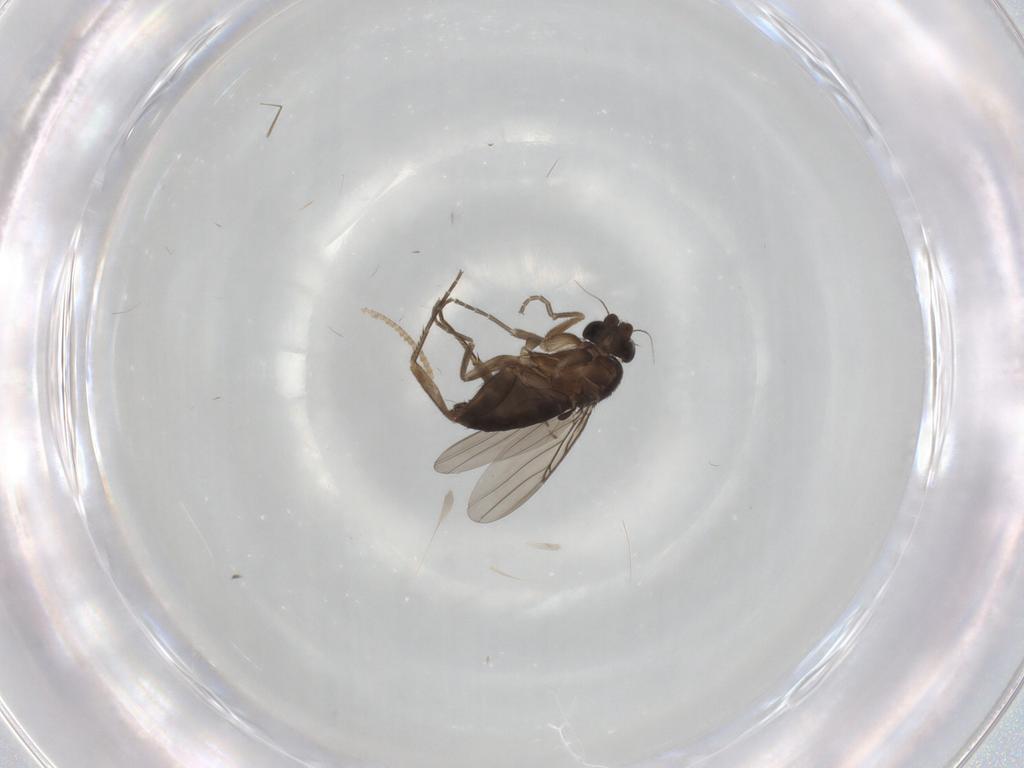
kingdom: Animalia
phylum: Arthropoda
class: Insecta
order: Diptera
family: Phoridae
